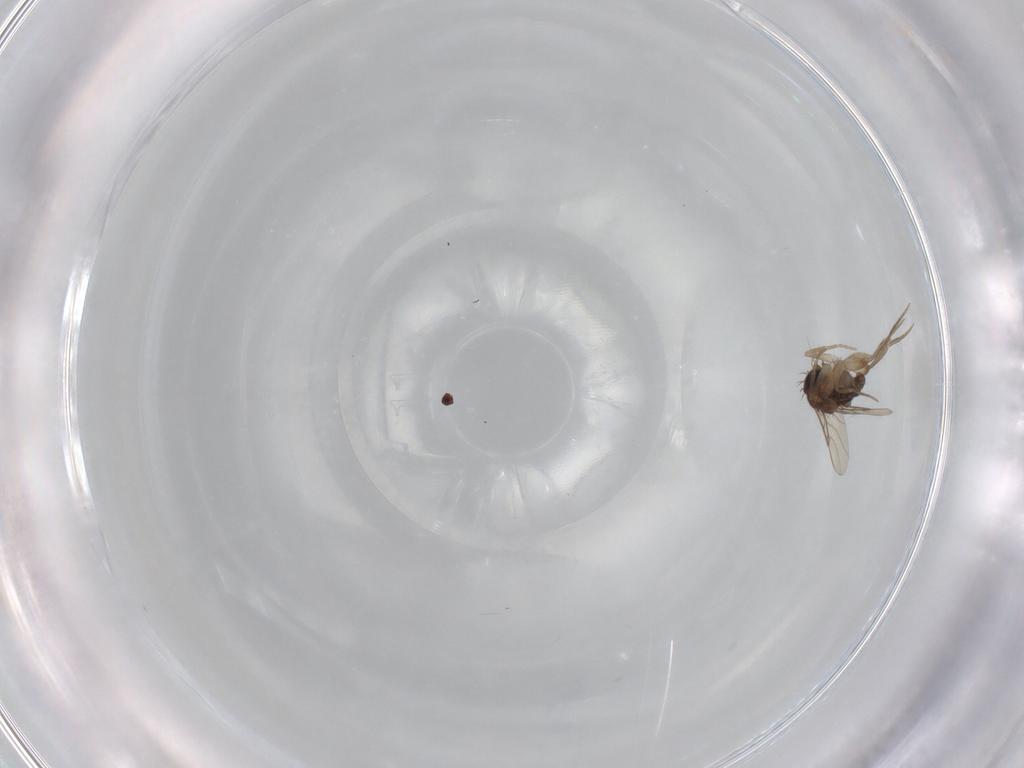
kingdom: Animalia
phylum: Arthropoda
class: Insecta
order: Diptera
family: Phoridae
